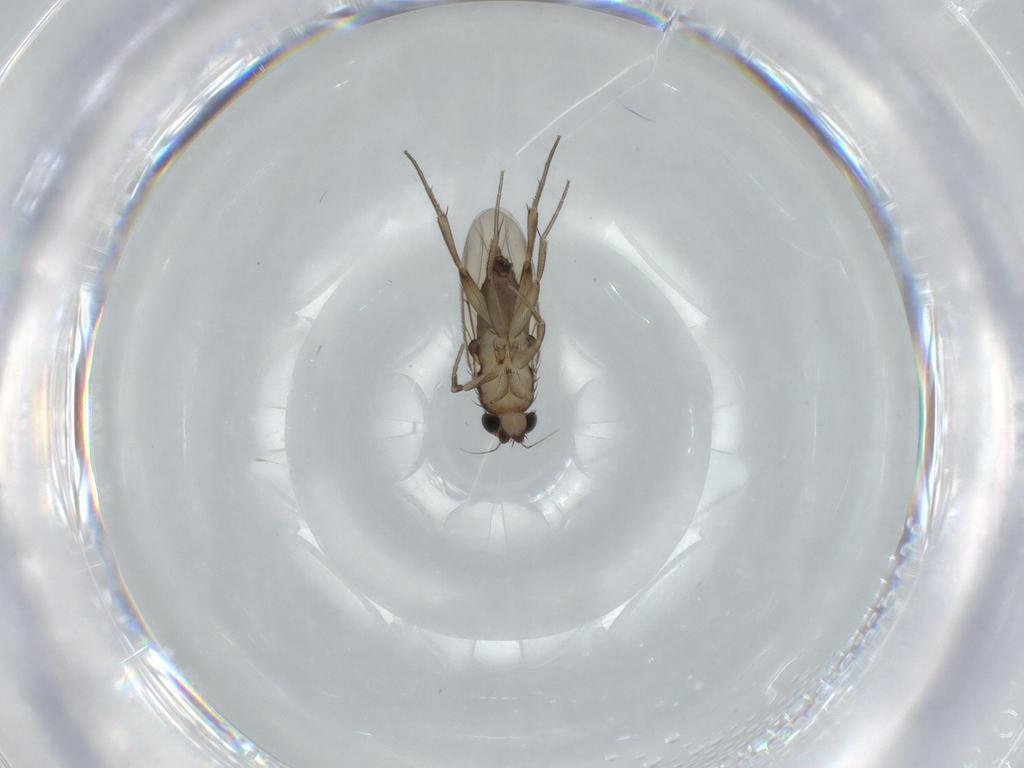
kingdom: Animalia
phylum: Arthropoda
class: Insecta
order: Diptera
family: Phoridae
